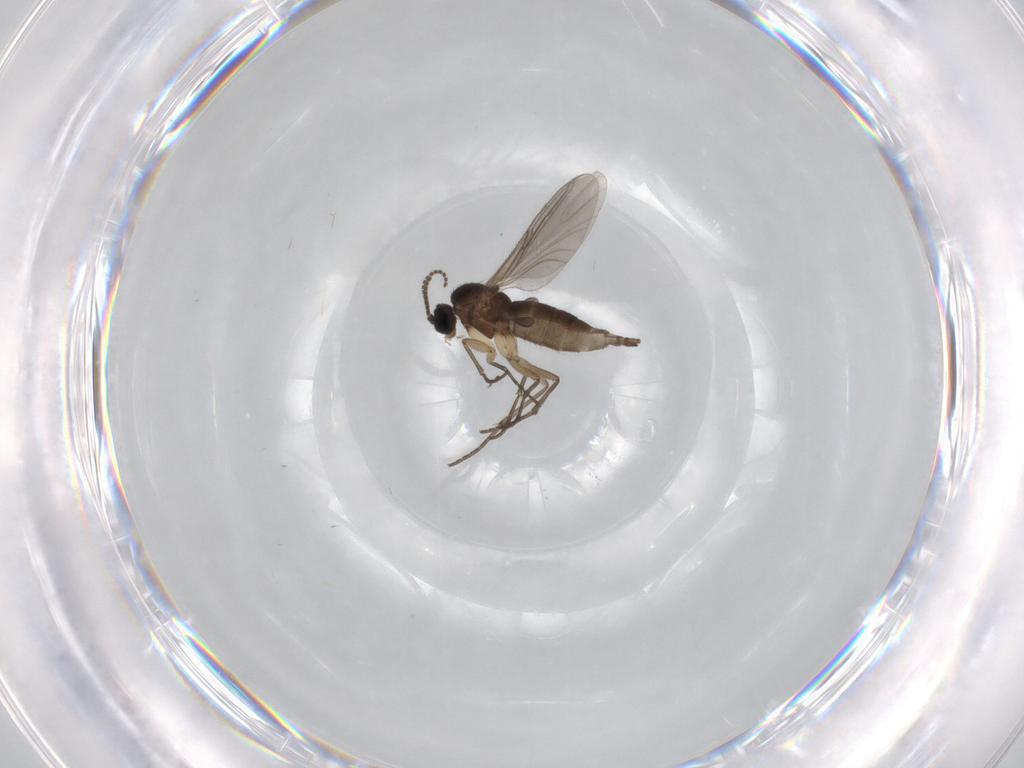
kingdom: Animalia
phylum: Arthropoda
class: Insecta
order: Diptera
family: Sciaridae
